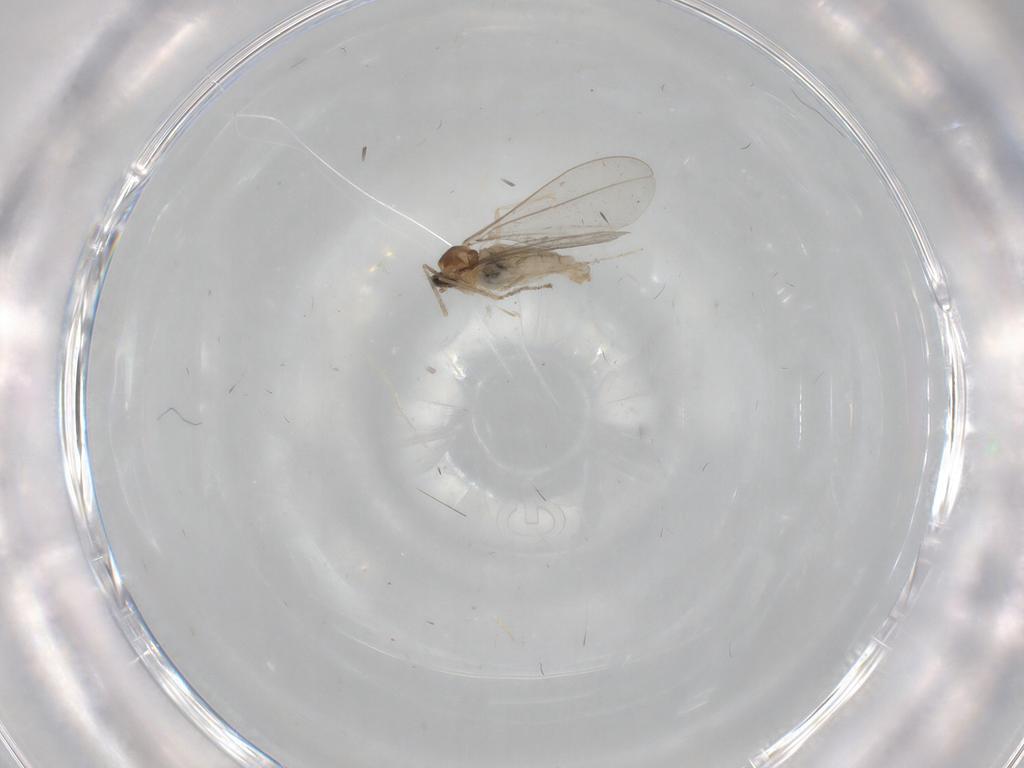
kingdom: Animalia
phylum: Arthropoda
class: Insecta
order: Diptera
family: Cecidomyiidae
